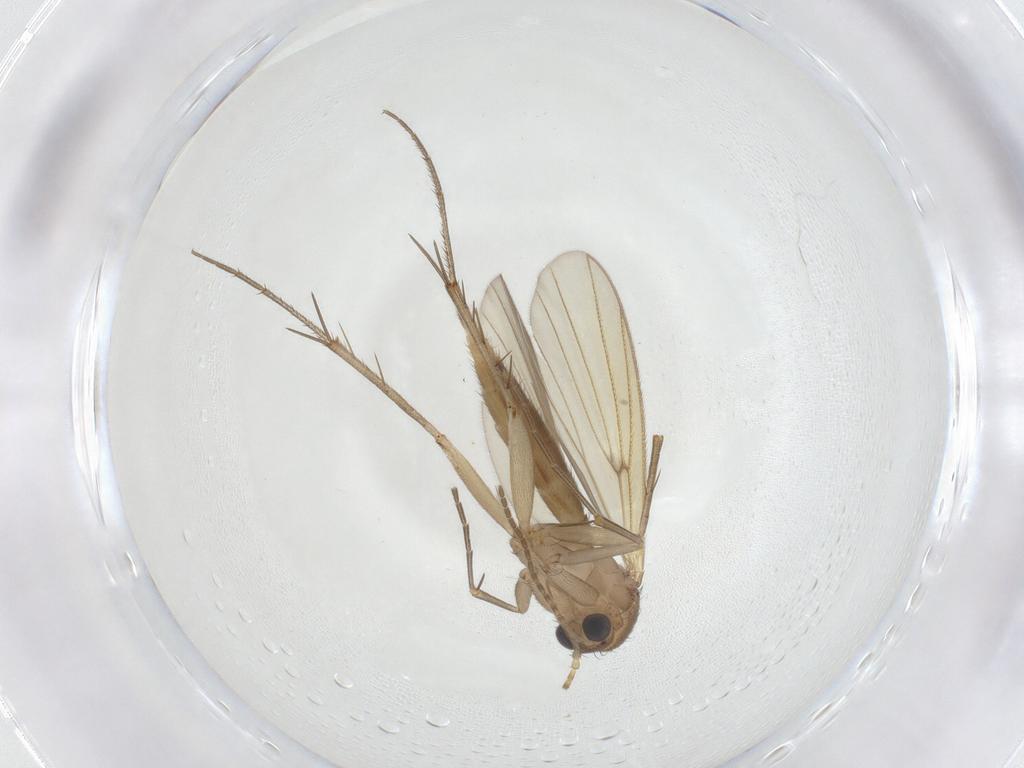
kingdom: Animalia
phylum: Arthropoda
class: Insecta
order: Diptera
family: Mycetophilidae
